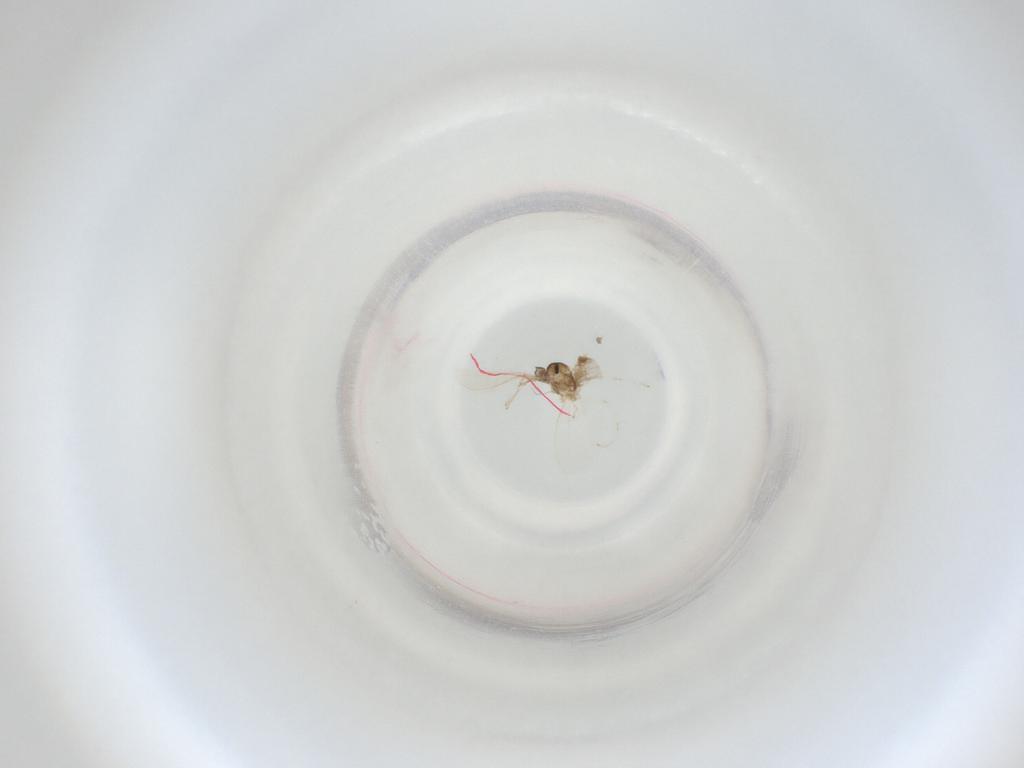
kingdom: Animalia
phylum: Arthropoda
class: Insecta
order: Diptera
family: Cecidomyiidae
